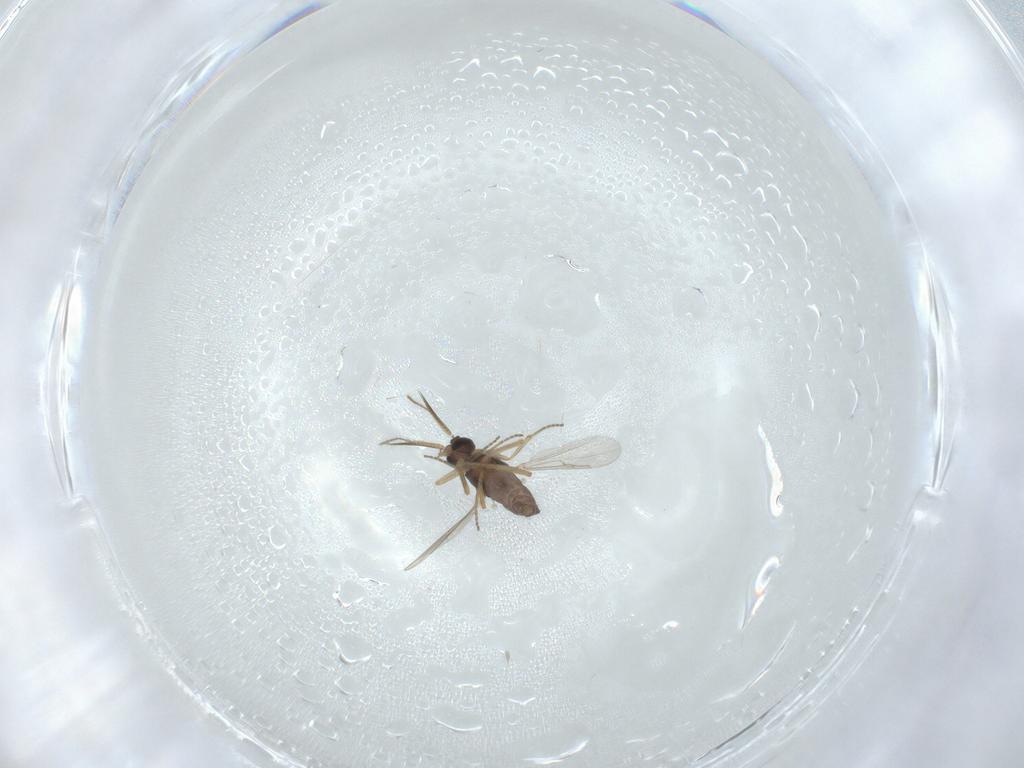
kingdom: Animalia
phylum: Arthropoda
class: Insecta
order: Diptera
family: Ceratopogonidae
